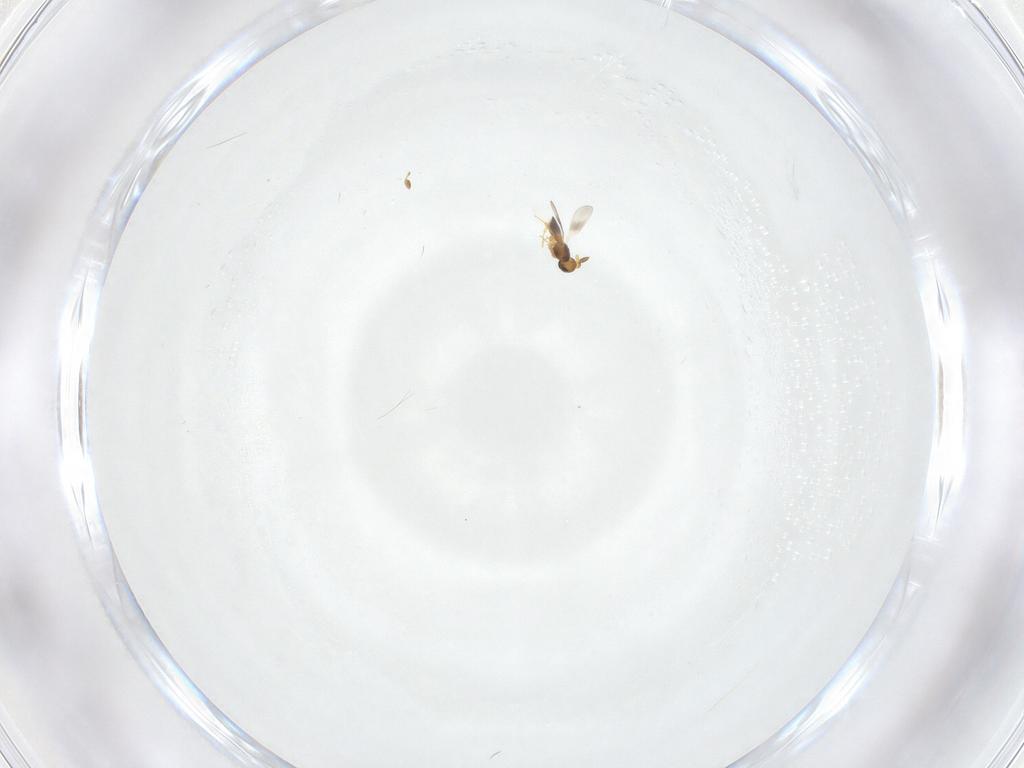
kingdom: Animalia
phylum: Arthropoda
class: Insecta
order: Hymenoptera
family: Platygastridae
